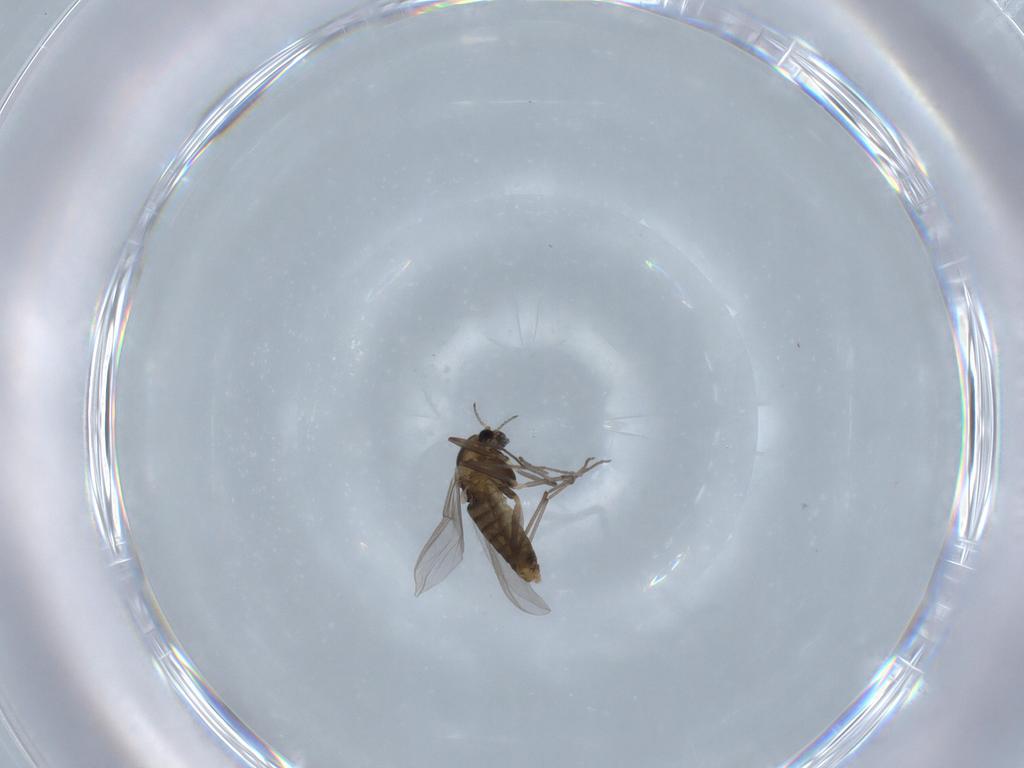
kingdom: Animalia
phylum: Arthropoda
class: Insecta
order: Diptera
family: Chironomidae
